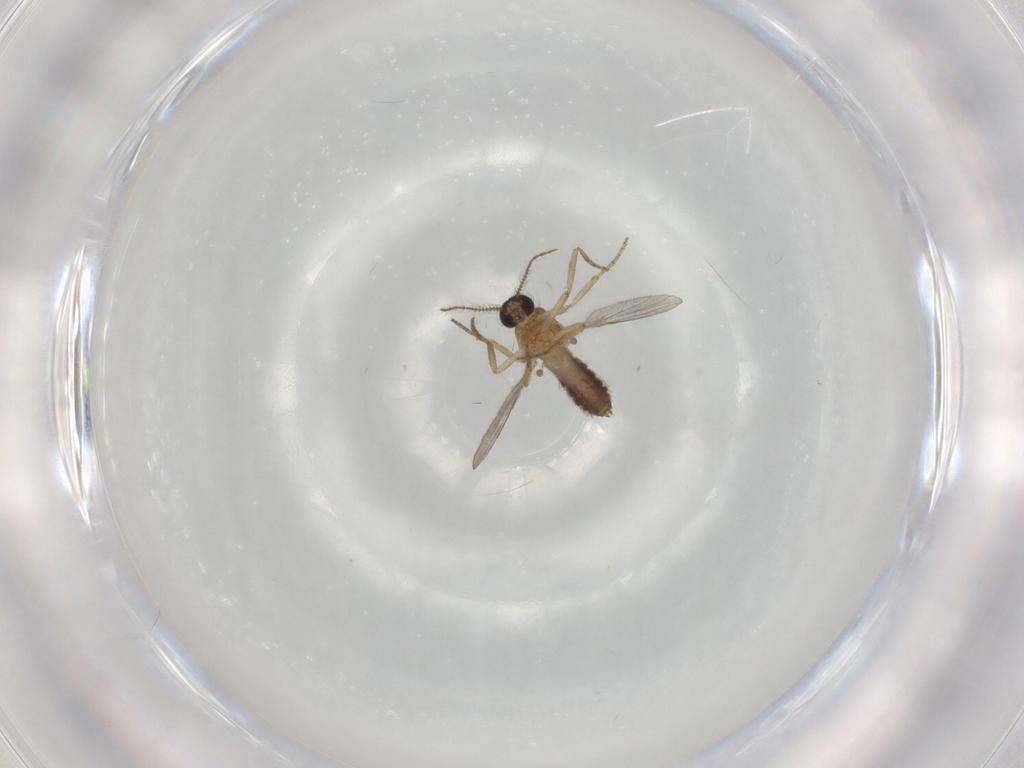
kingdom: Animalia
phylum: Arthropoda
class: Insecta
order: Diptera
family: Ceratopogonidae
